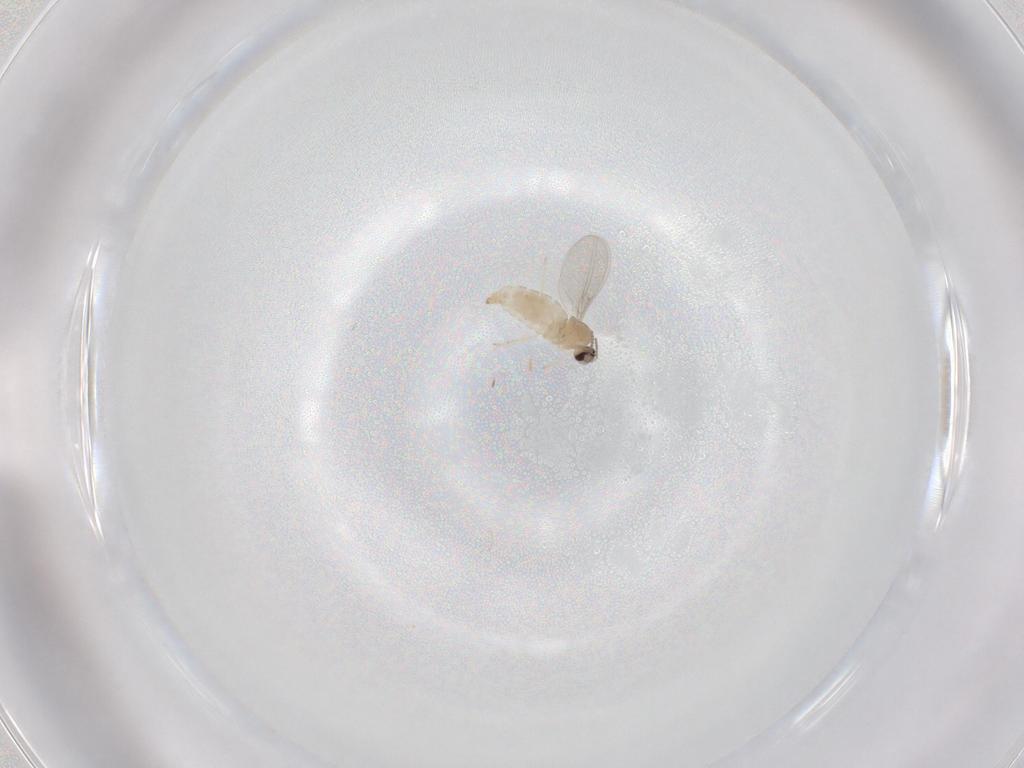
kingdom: Animalia
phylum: Arthropoda
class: Insecta
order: Diptera
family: Cecidomyiidae
